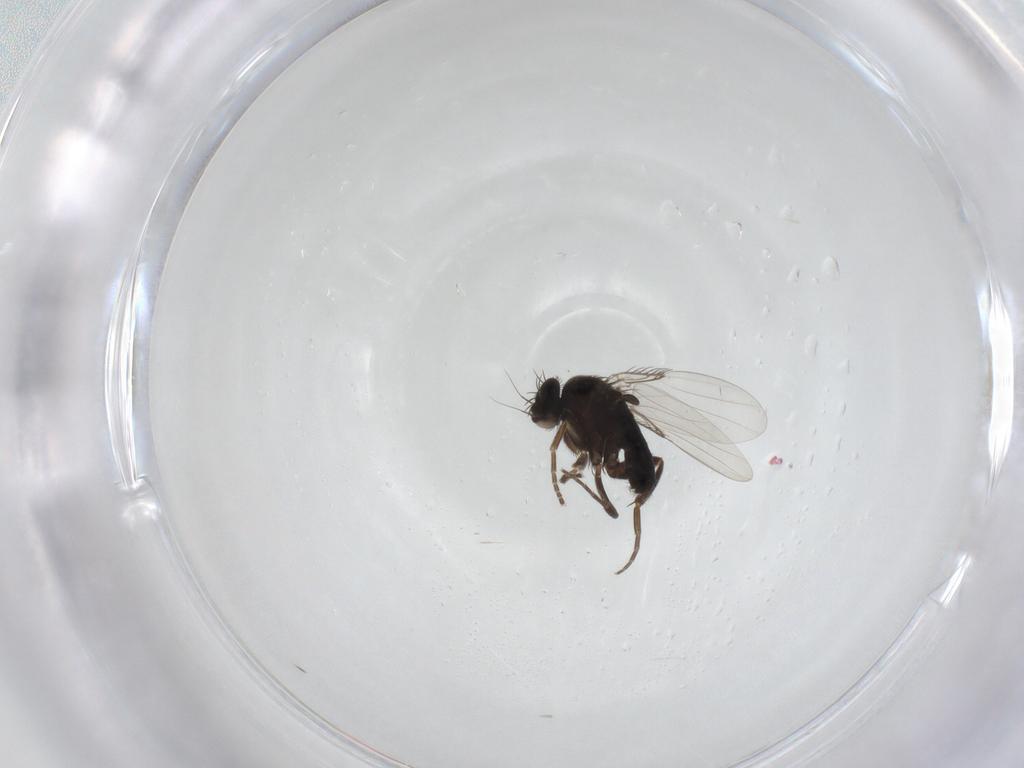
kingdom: Animalia
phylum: Arthropoda
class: Insecta
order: Diptera
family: Phoridae
